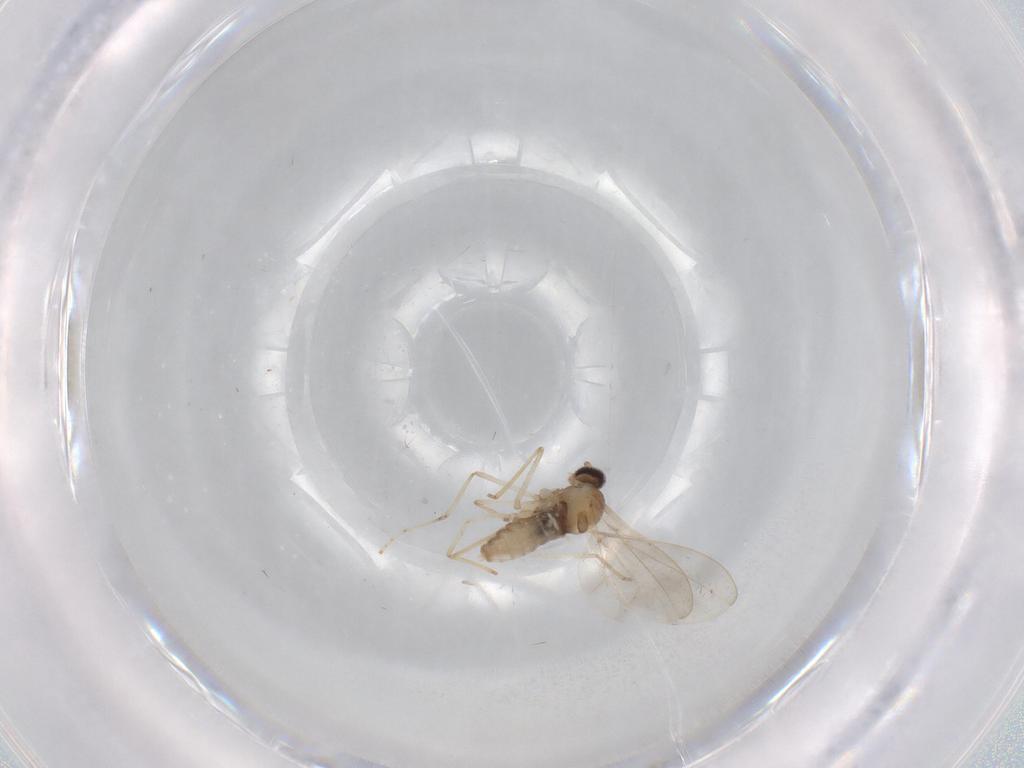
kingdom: Animalia
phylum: Arthropoda
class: Insecta
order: Diptera
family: Cecidomyiidae
